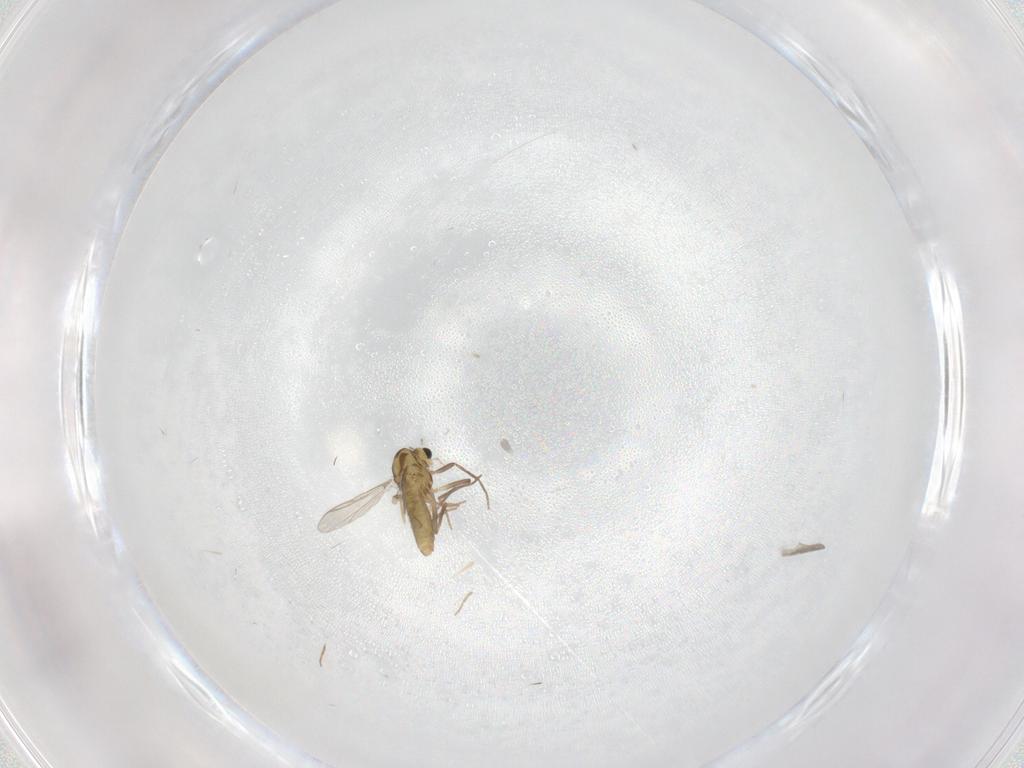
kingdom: Animalia
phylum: Arthropoda
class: Insecta
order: Diptera
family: Chironomidae
